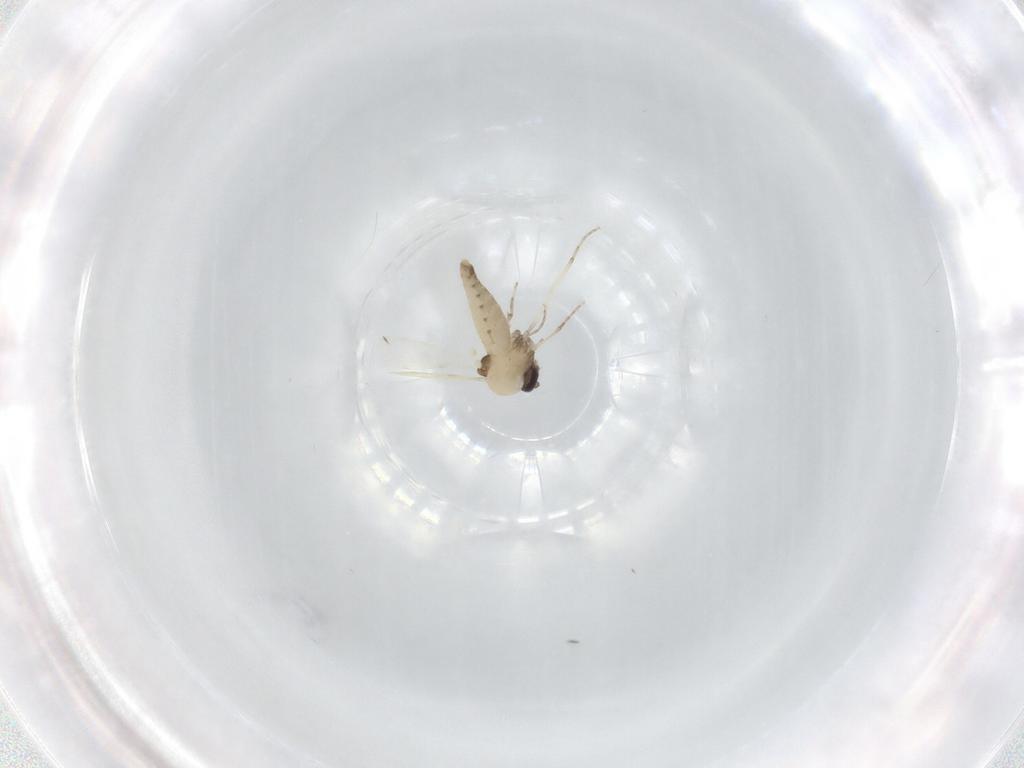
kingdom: Animalia
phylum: Arthropoda
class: Insecta
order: Diptera
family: Ceratopogonidae
